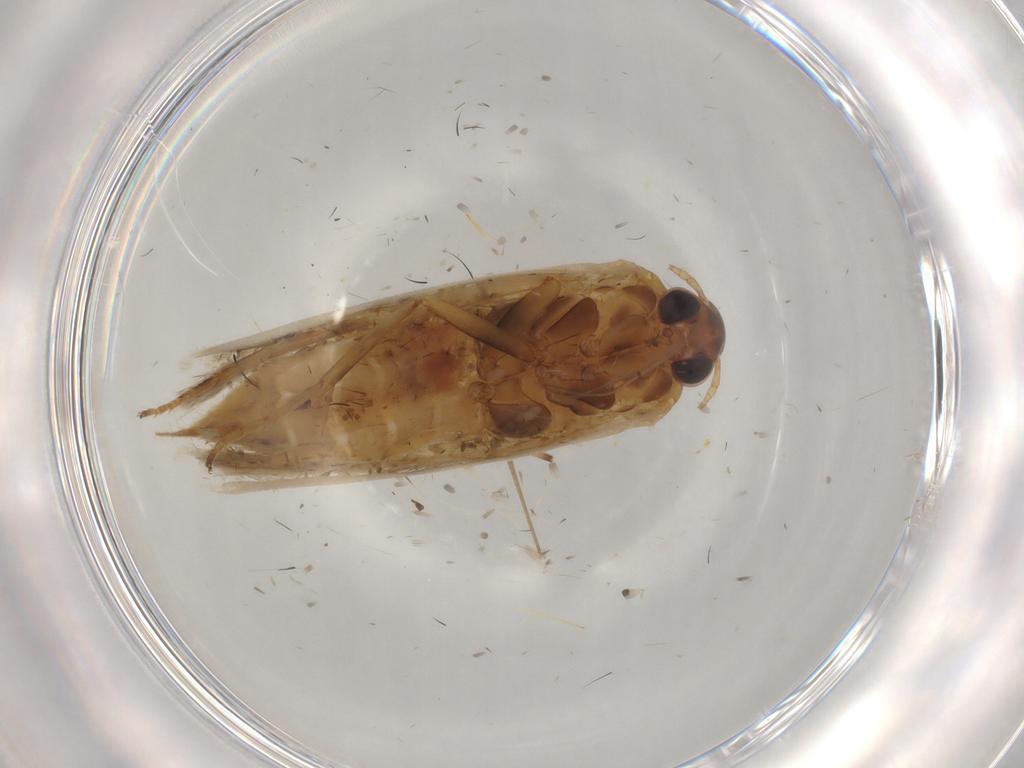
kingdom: Animalia
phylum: Arthropoda
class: Insecta
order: Lepidoptera
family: Nepticulidae
